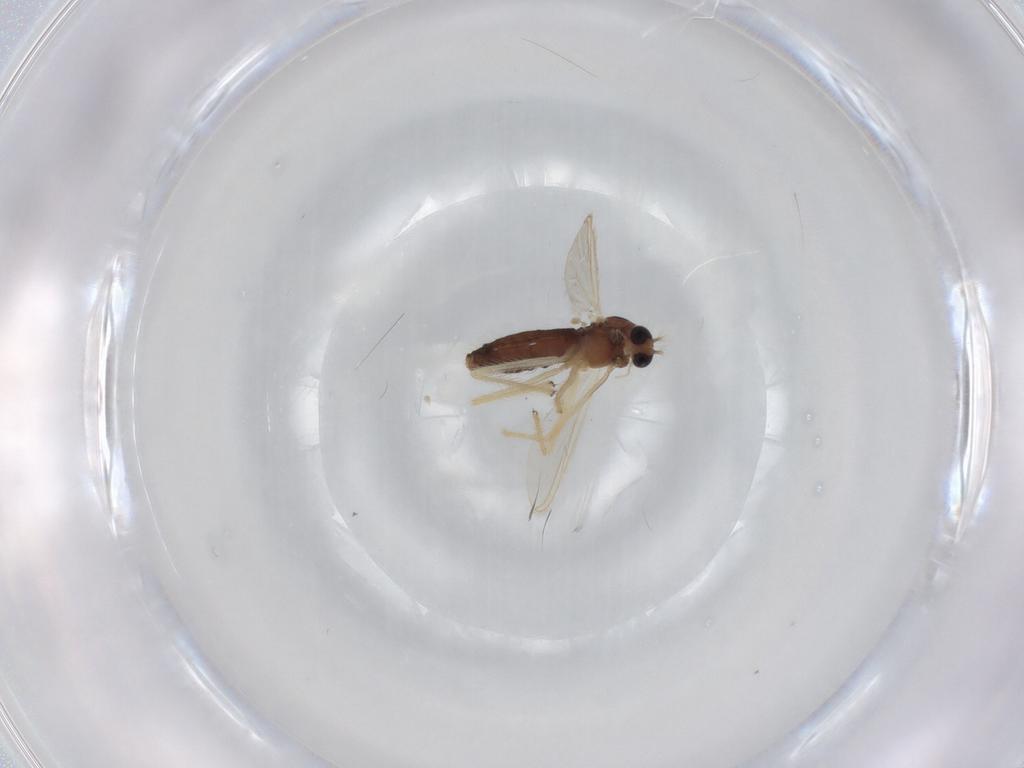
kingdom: Animalia
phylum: Arthropoda
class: Insecta
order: Diptera
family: Chironomidae
